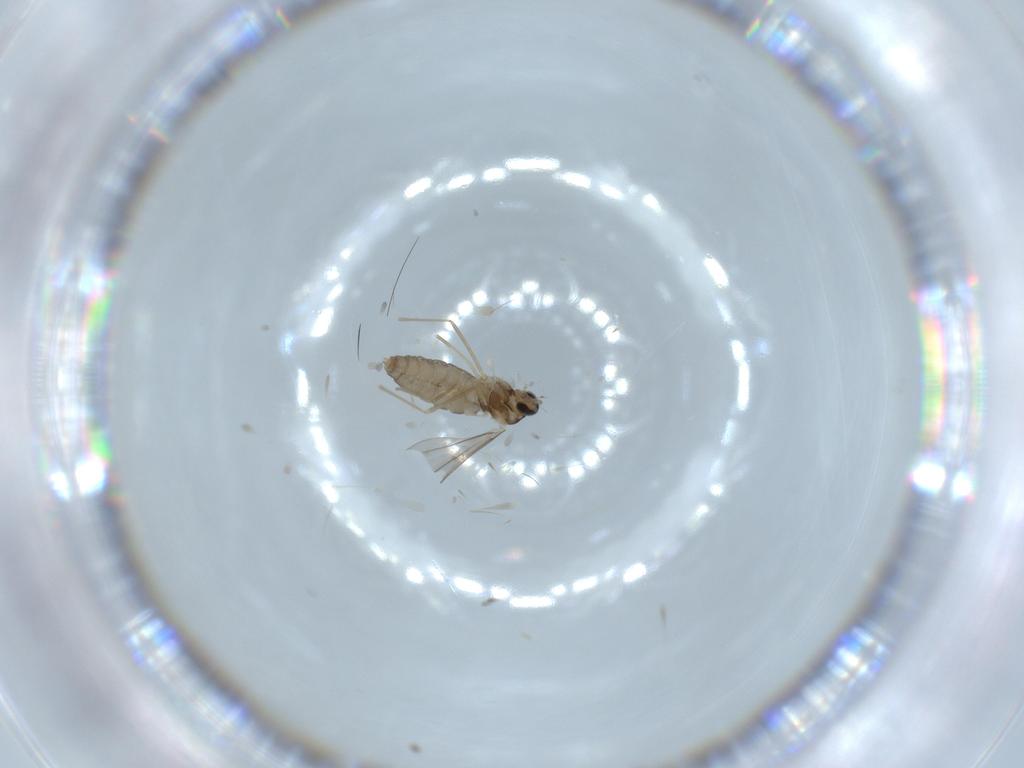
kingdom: Animalia
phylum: Arthropoda
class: Insecta
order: Diptera
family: Cecidomyiidae
